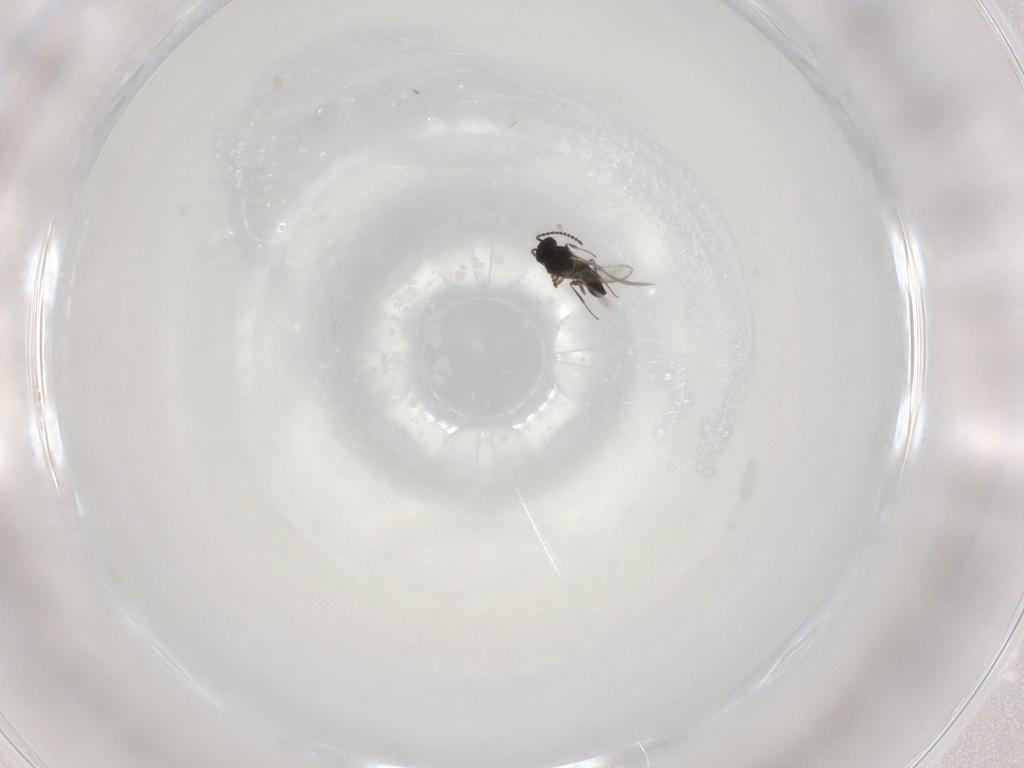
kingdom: Animalia
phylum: Arthropoda
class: Insecta
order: Hymenoptera
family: Scelionidae
